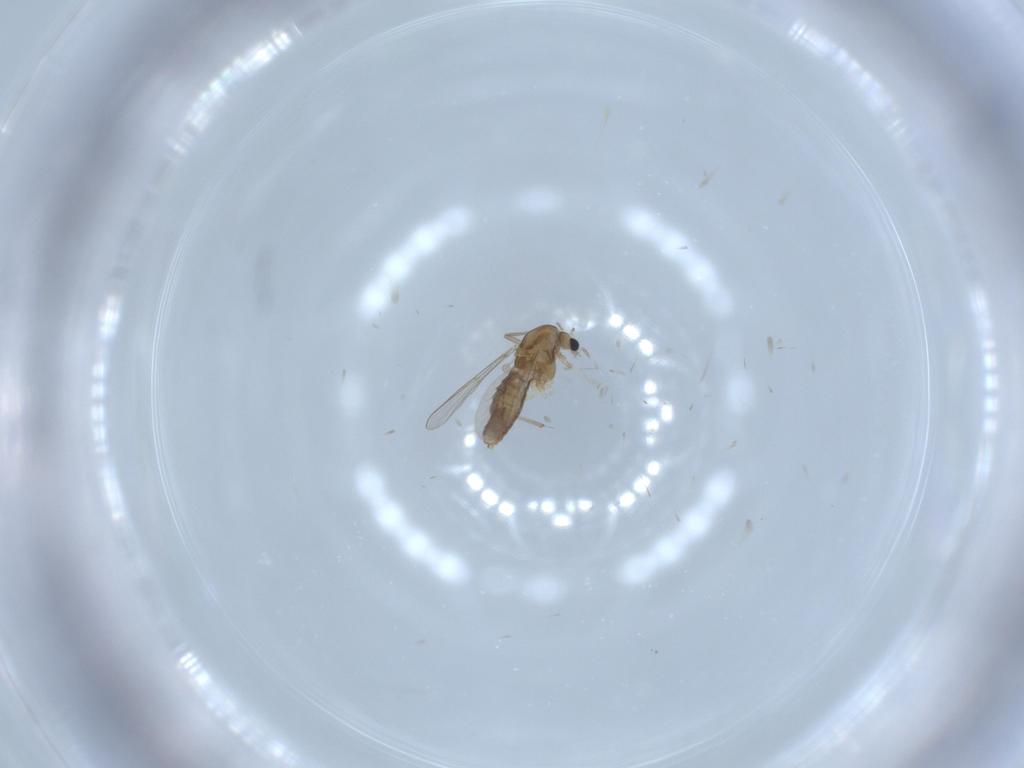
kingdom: Animalia
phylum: Arthropoda
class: Insecta
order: Diptera
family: Chironomidae
